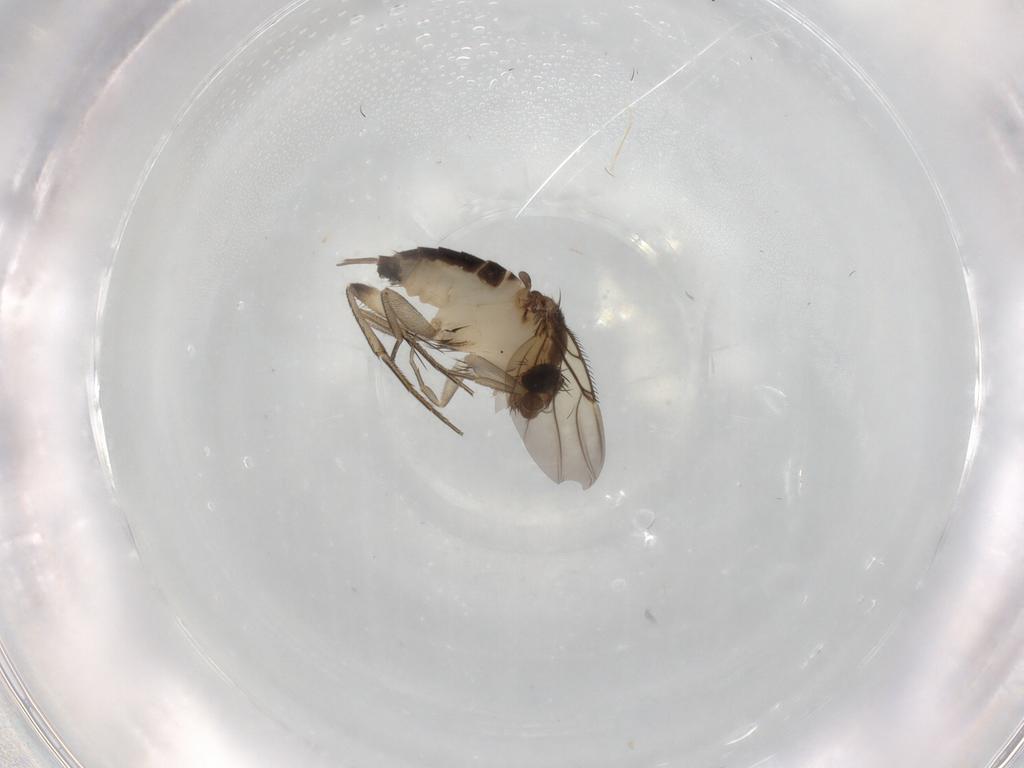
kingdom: Animalia
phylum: Arthropoda
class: Insecta
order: Diptera
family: Phoridae
